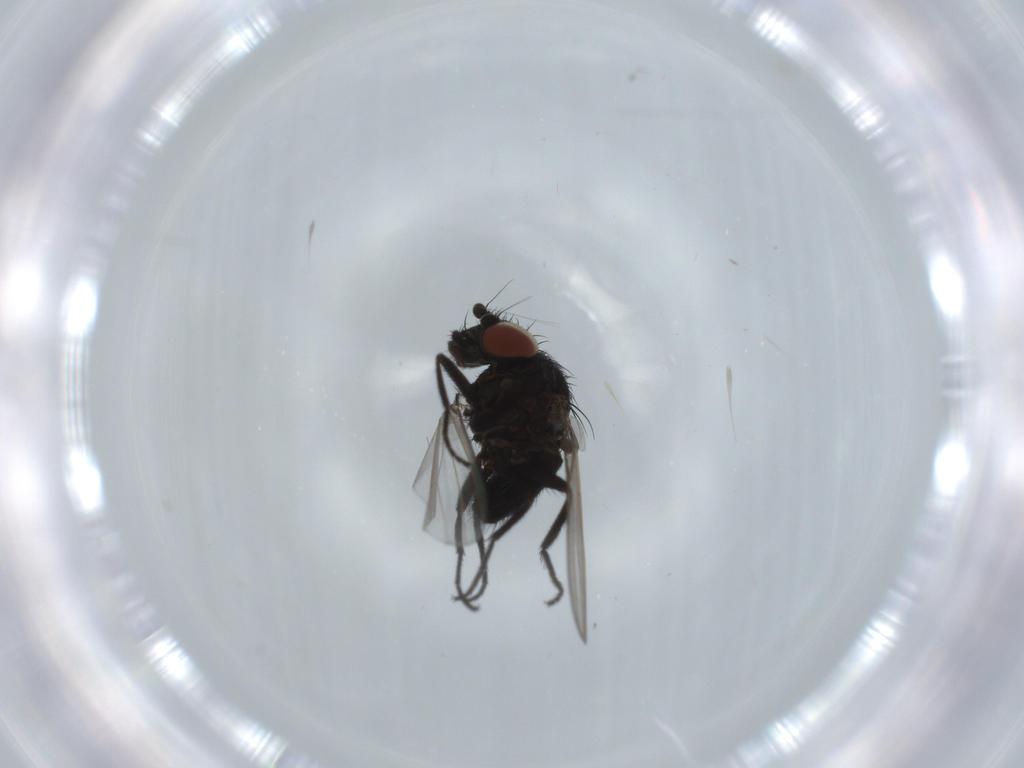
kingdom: Animalia
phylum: Arthropoda
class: Insecta
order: Diptera
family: Milichiidae
